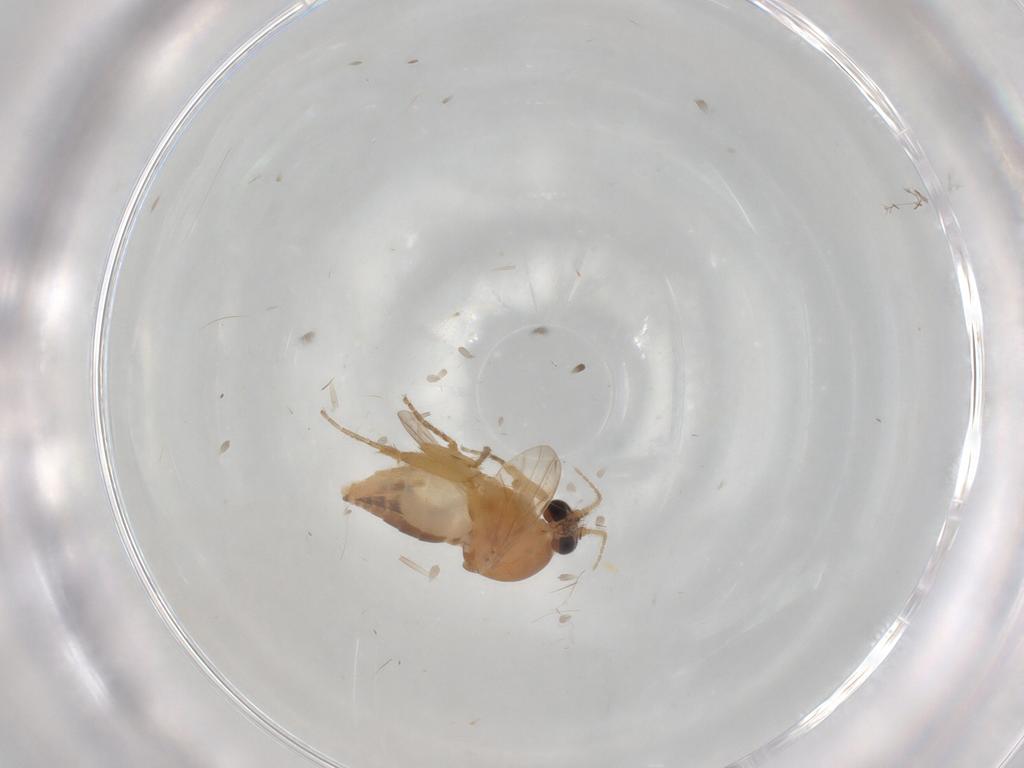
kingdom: Animalia
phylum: Arthropoda
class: Insecta
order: Diptera
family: Ceratopogonidae
